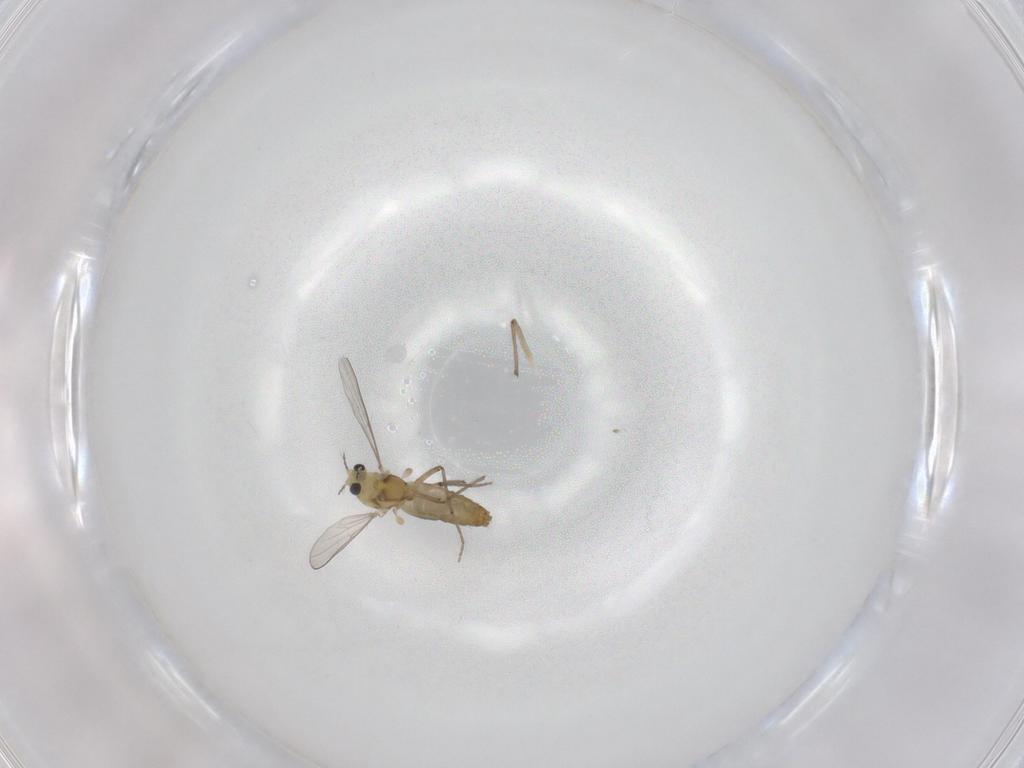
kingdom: Animalia
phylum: Arthropoda
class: Insecta
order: Diptera
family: Chironomidae
